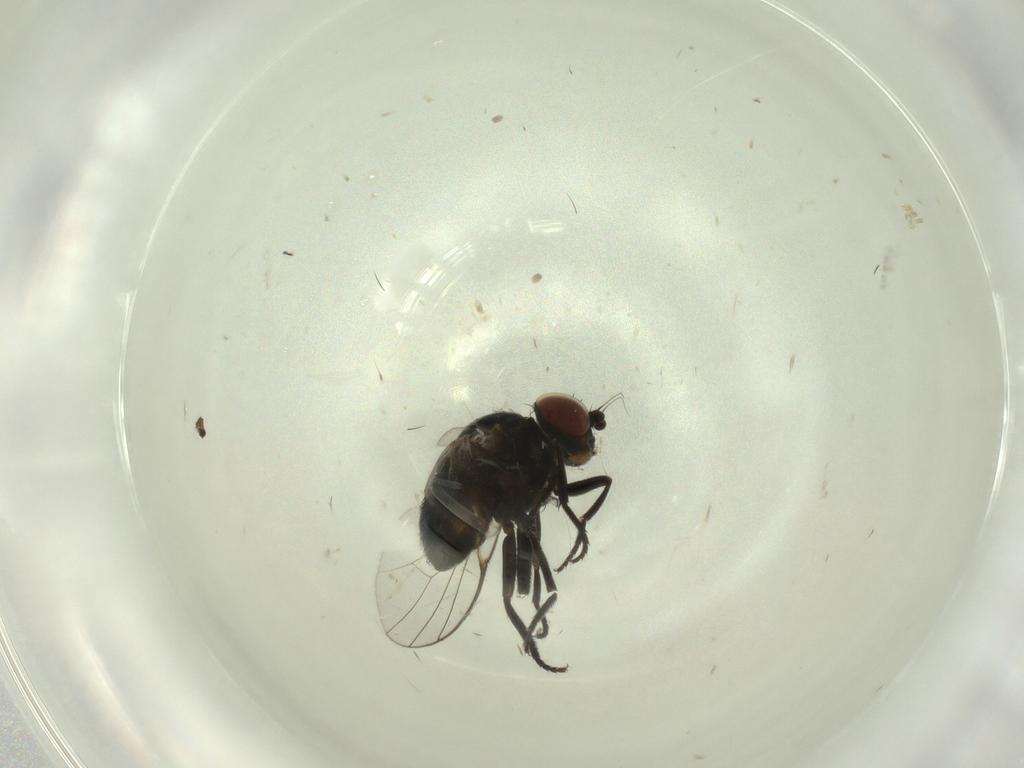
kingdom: Animalia
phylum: Arthropoda
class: Insecta
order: Diptera
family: Agromyzidae
